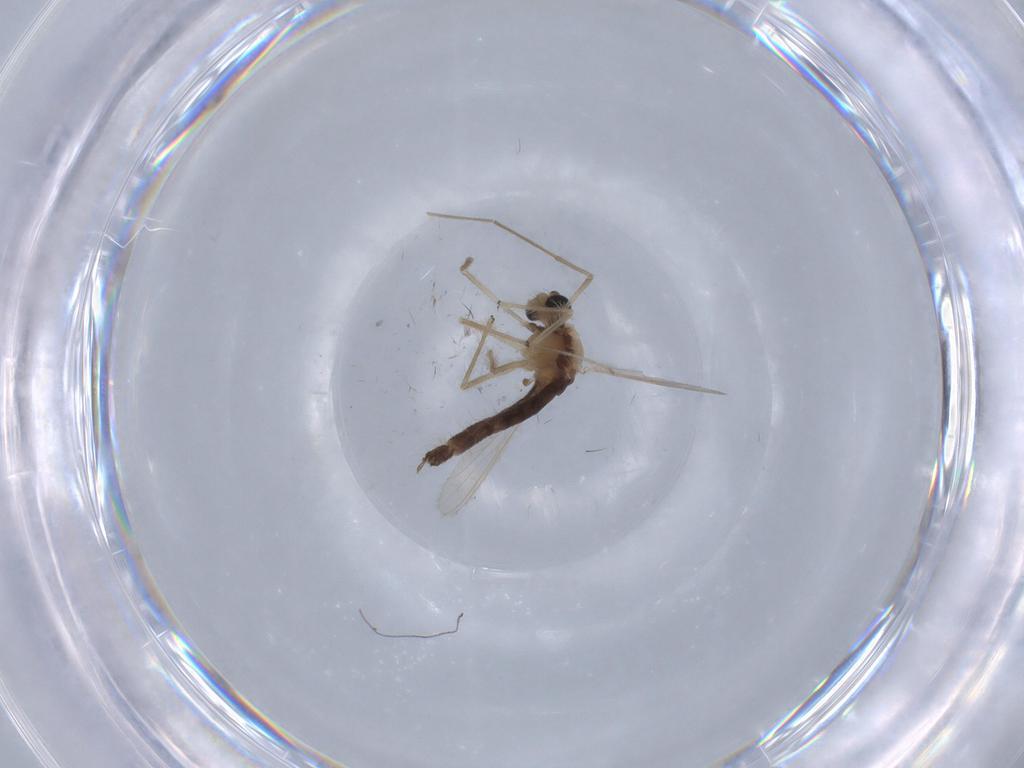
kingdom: Animalia
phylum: Arthropoda
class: Insecta
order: Diptera
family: Chironomidae
